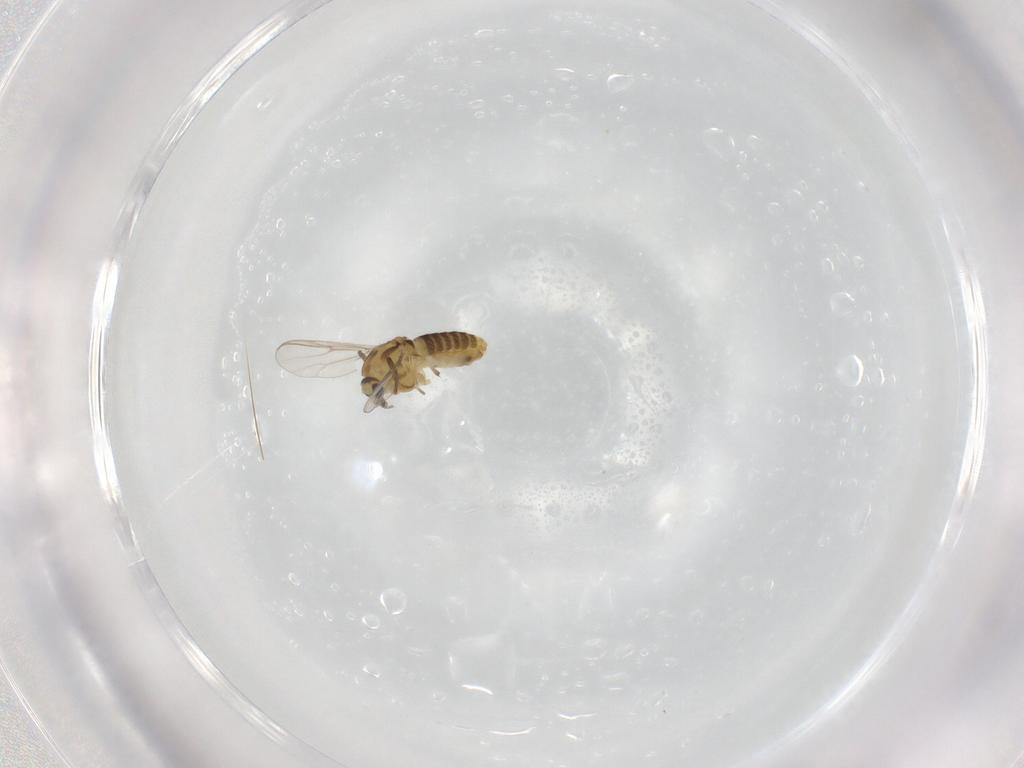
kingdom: Animalia
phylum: Arthropoda
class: Insecta
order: Diptera
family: Chironomidae
